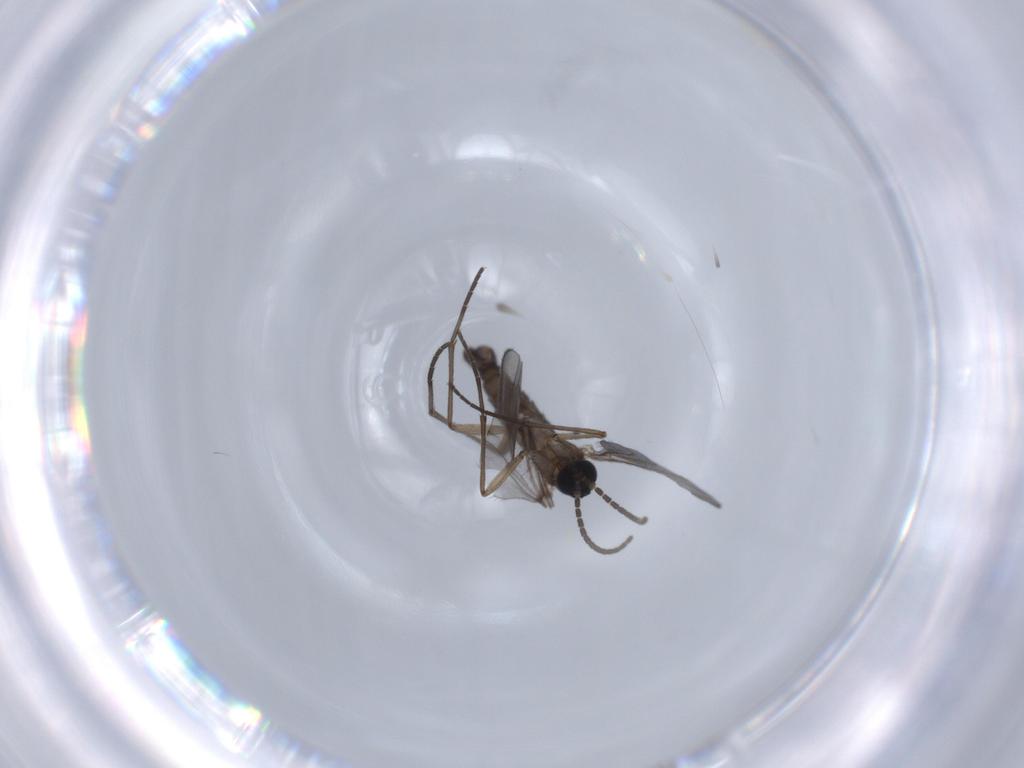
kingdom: Animalia
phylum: Arthropoda
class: Insecta
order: Diptera
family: Sciaridae
